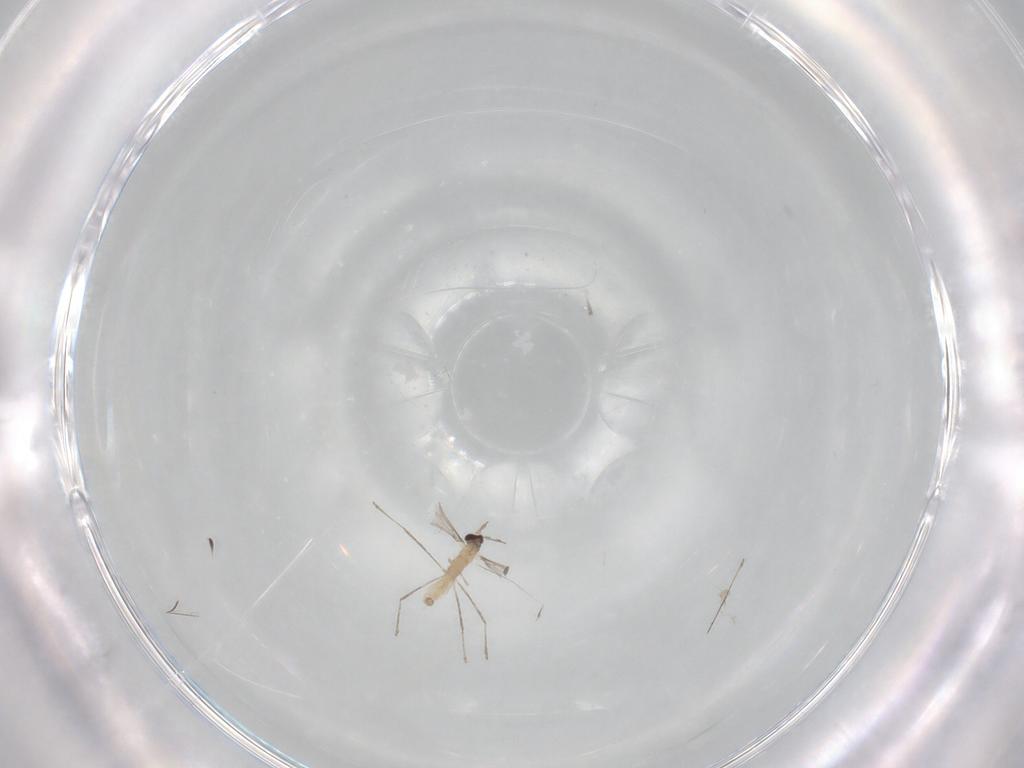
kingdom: Animalia
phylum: Arthropoda
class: Insecta
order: Diptera
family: Cecidomyiidae
